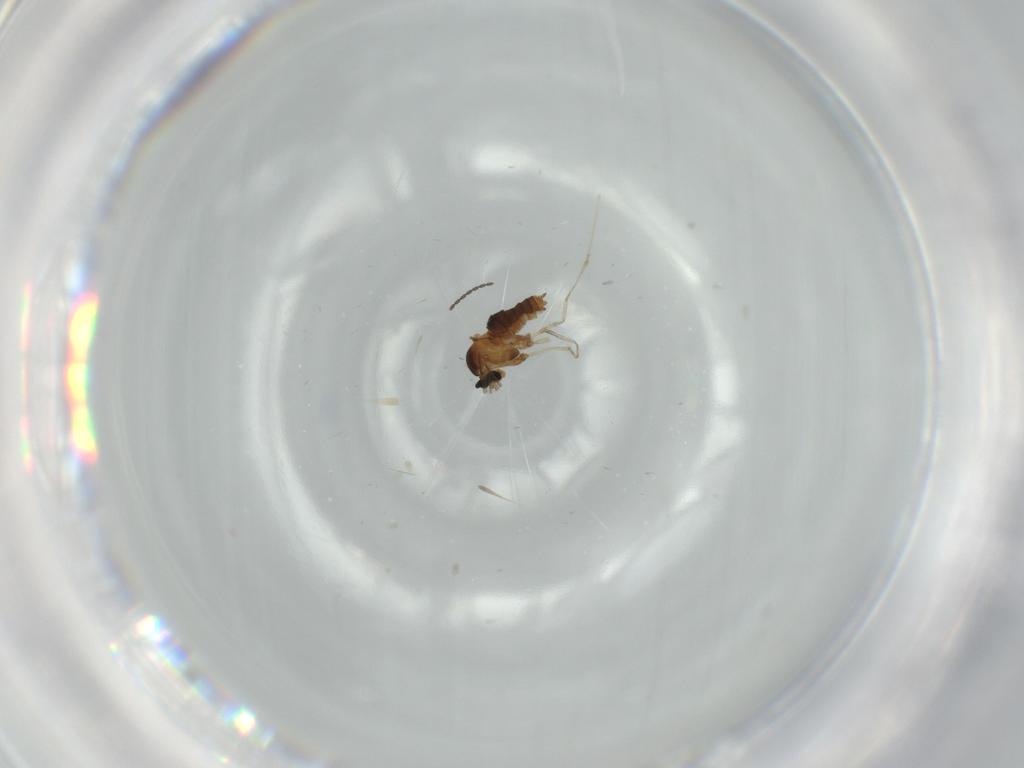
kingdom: Animalia
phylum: Arthropoda
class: Insecta
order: Diptera
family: Cecidomyiidae
